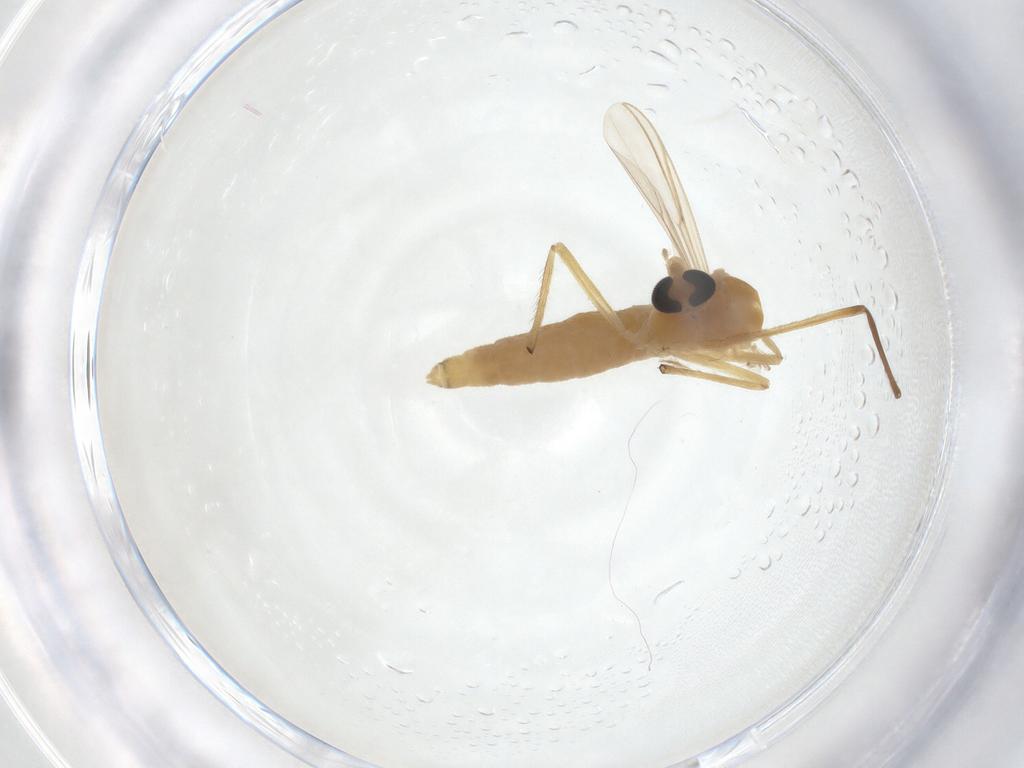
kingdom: Animalia
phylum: Arthropoda
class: Insecta
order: Diptera
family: Chironomidae
